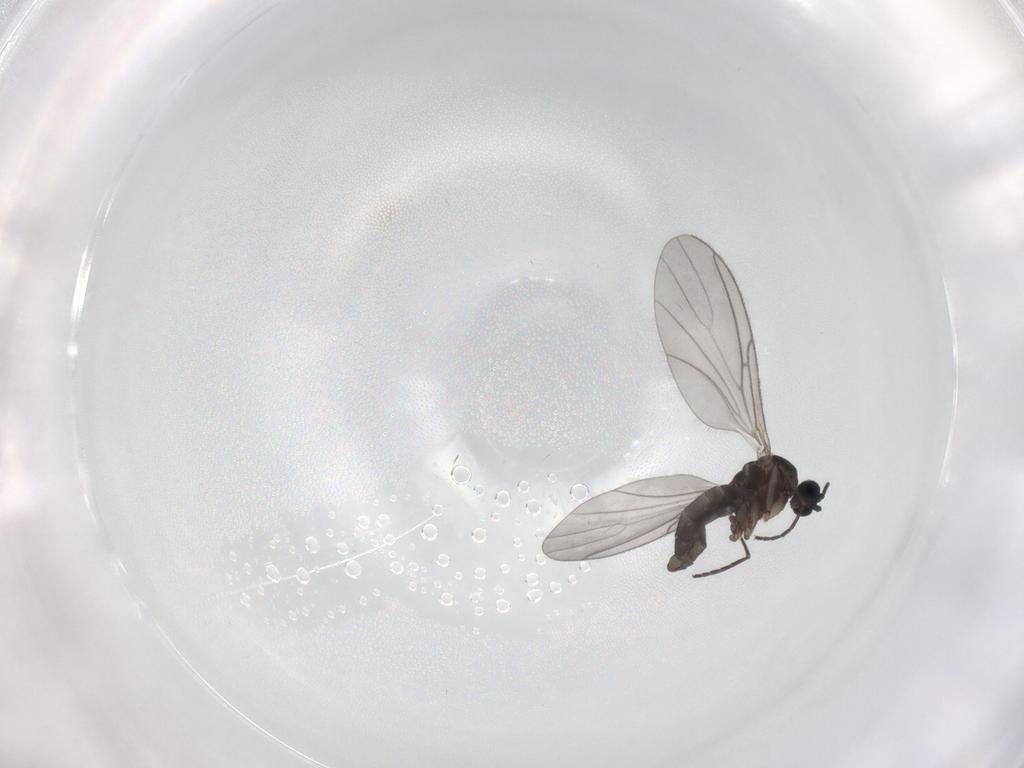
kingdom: Animalia
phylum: Arthropoda
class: Insecta
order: Diptera
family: Sciaridae
